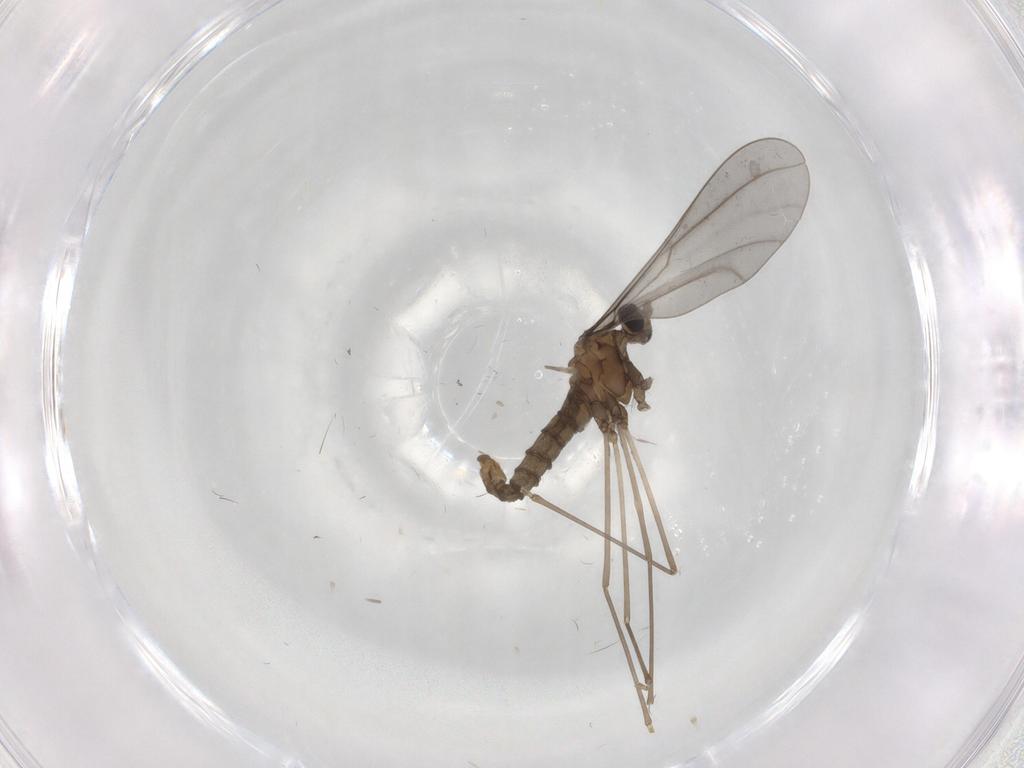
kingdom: Animalia
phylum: Arthropoda
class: Insecta
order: Diptera
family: Cecidomyiidae
